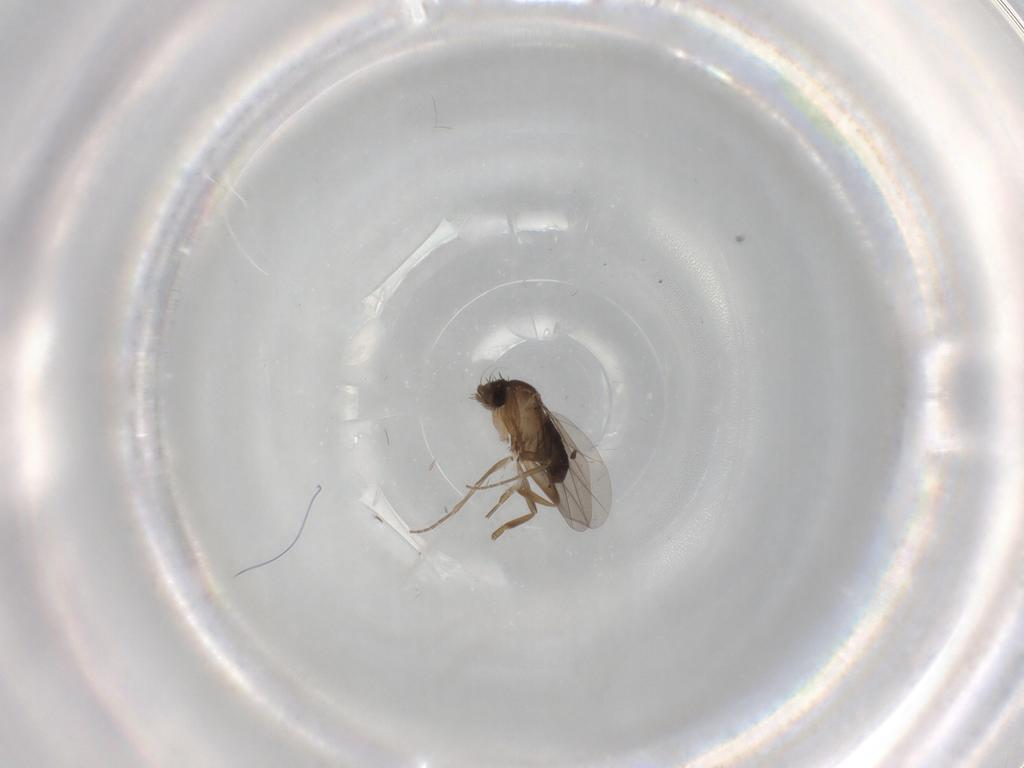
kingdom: Animalia
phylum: Arthropoda
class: Insecta
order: Diptera
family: Phoridae
